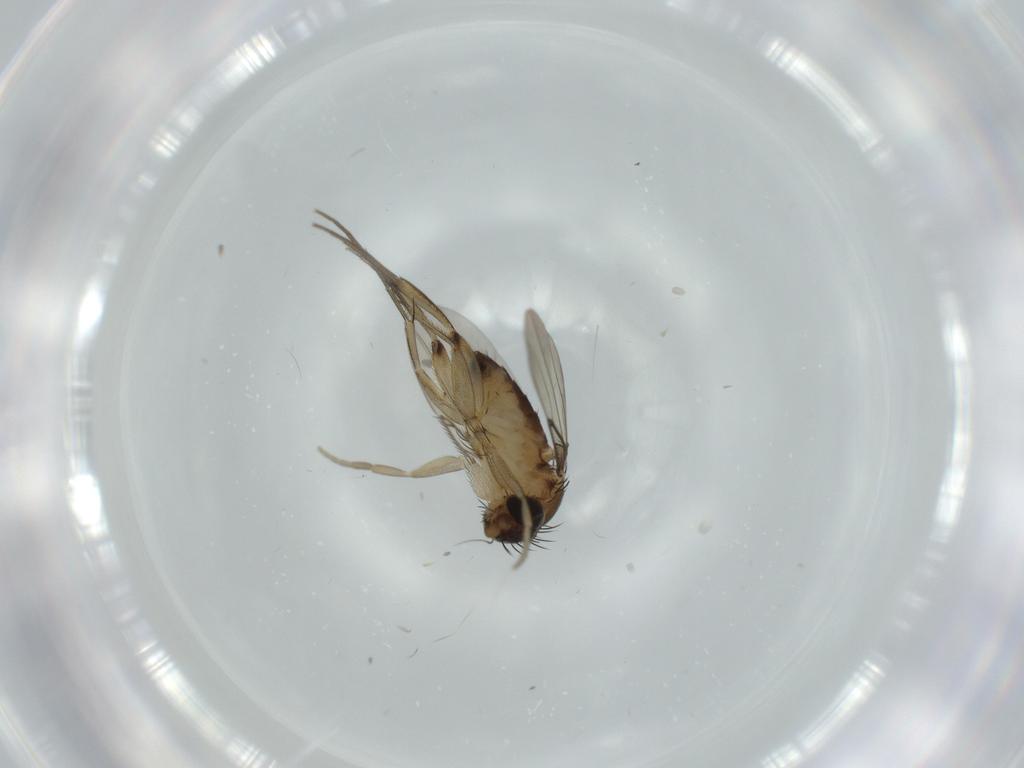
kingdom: Animalia
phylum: Arthropoda
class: Insecta
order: Diptera
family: Phoridae
